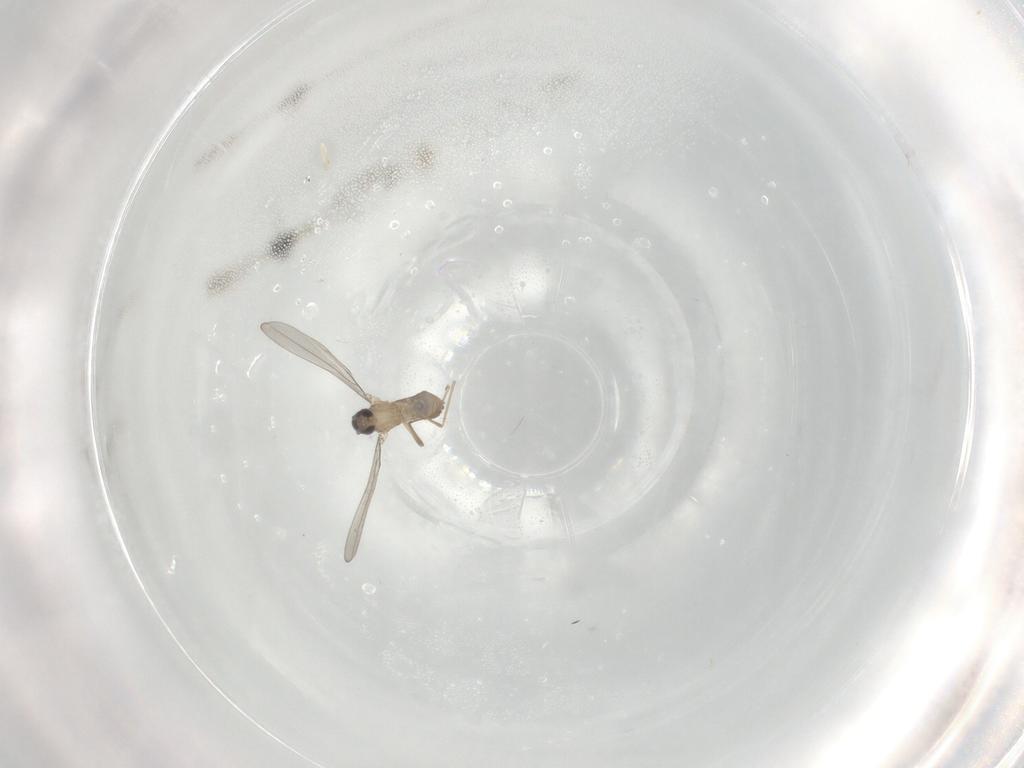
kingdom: Animalia
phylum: Arthropoda
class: Insecta
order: Diptera
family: Cecidomyiidae
